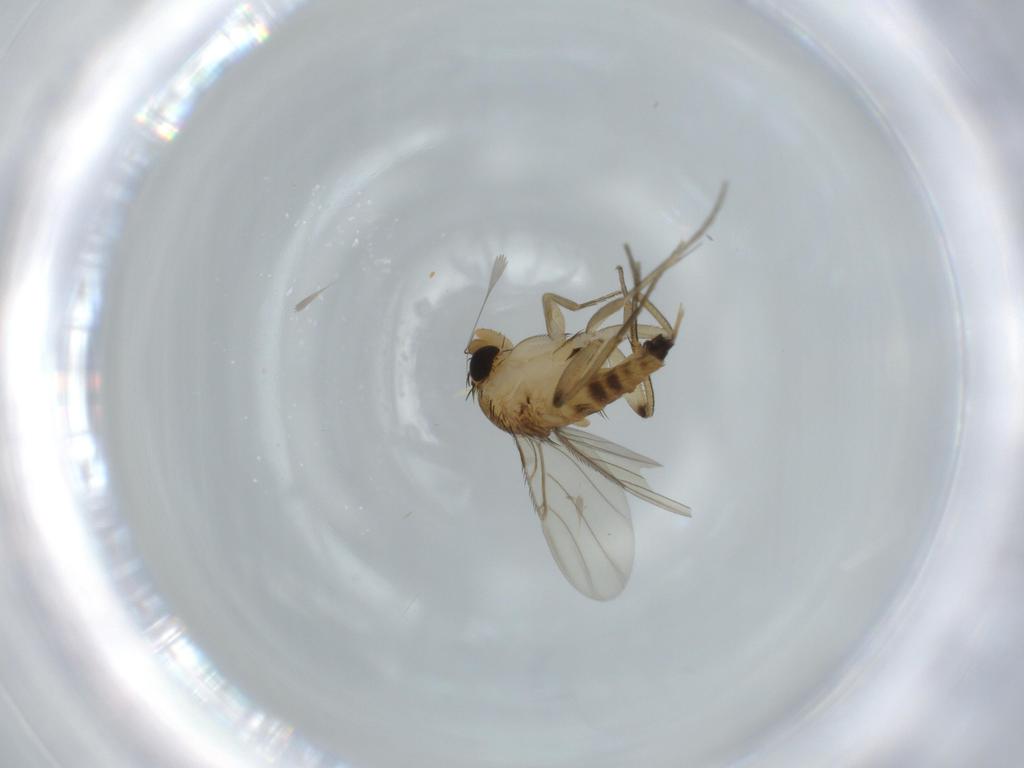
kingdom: Animalia
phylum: Arthropoda
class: Insecta
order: Diptera
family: Phoridae
